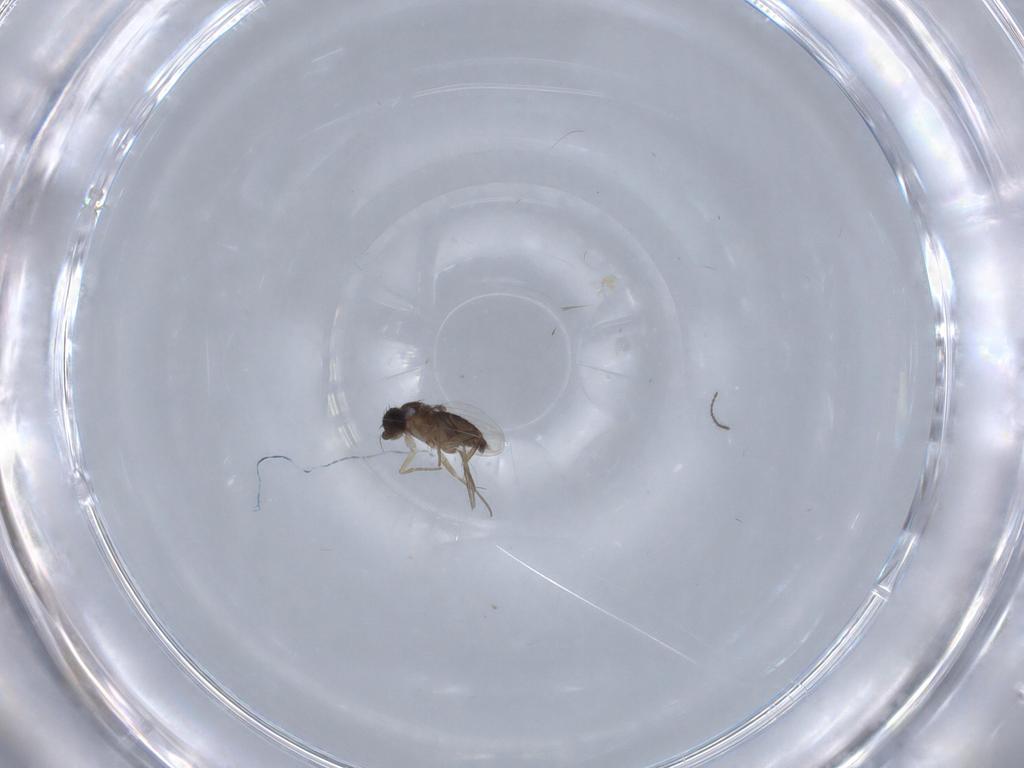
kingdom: Animalia
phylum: Arthropoda
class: Insecta
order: Diptera
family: Ceratopogonidae
